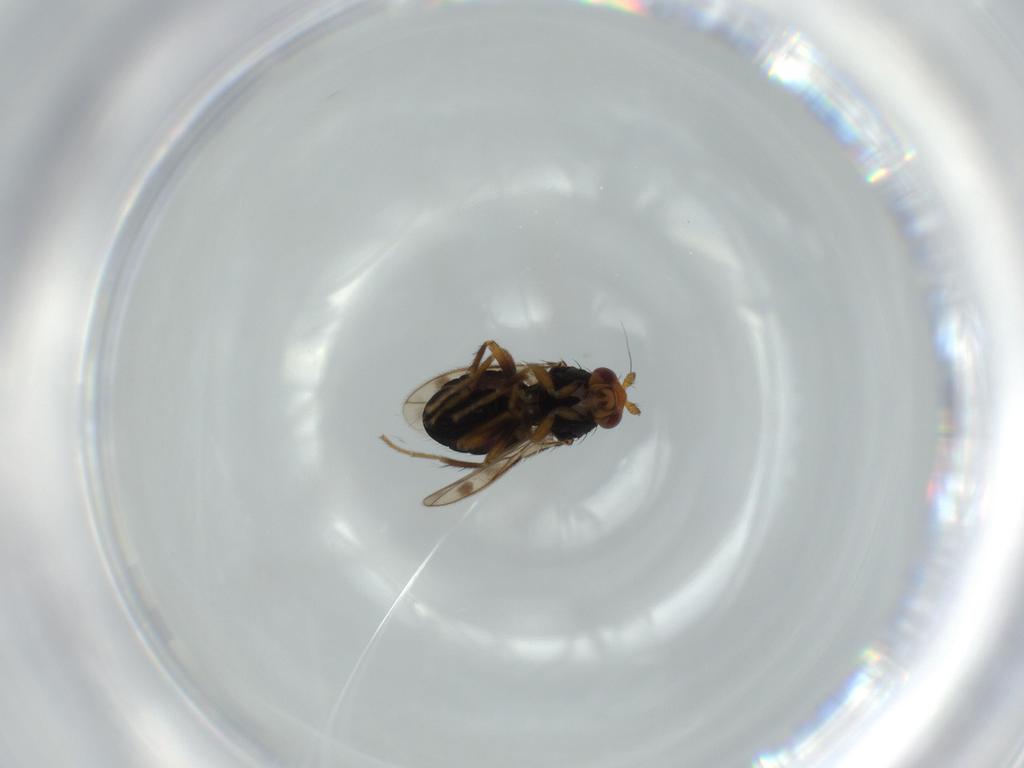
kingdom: Animalia
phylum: Arthropoda
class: Insecta
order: Diptera
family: Sphaeroceridae
